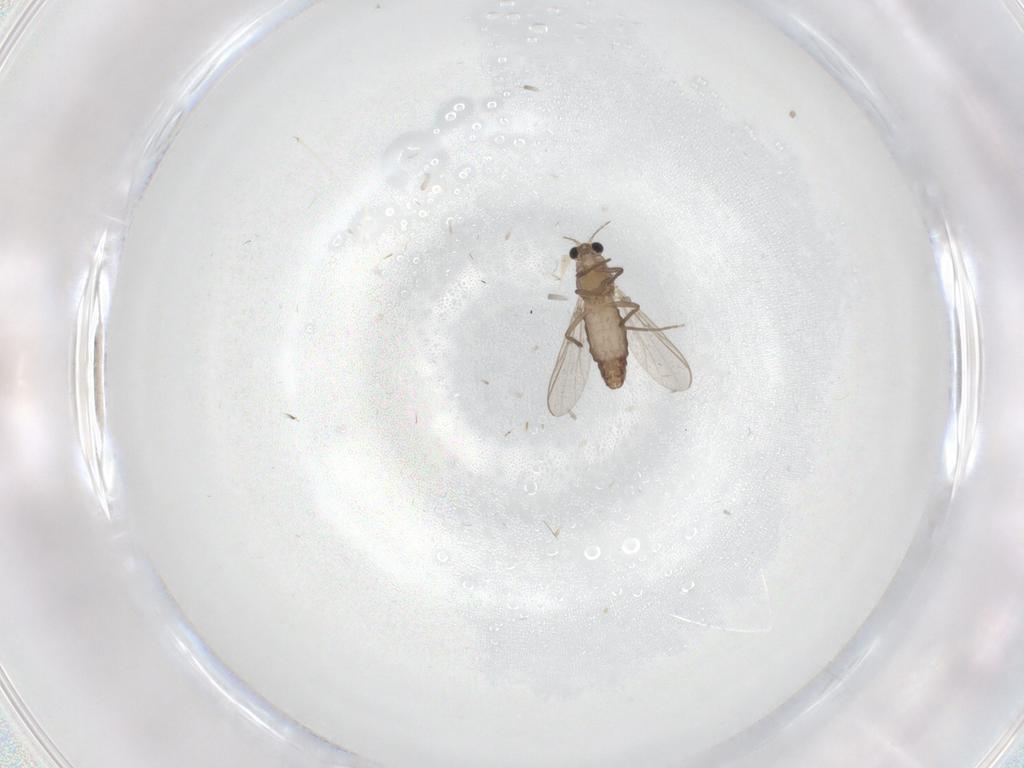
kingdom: Animalia
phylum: Arthropoda
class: Insecta
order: Diptera
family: Chironomidae
